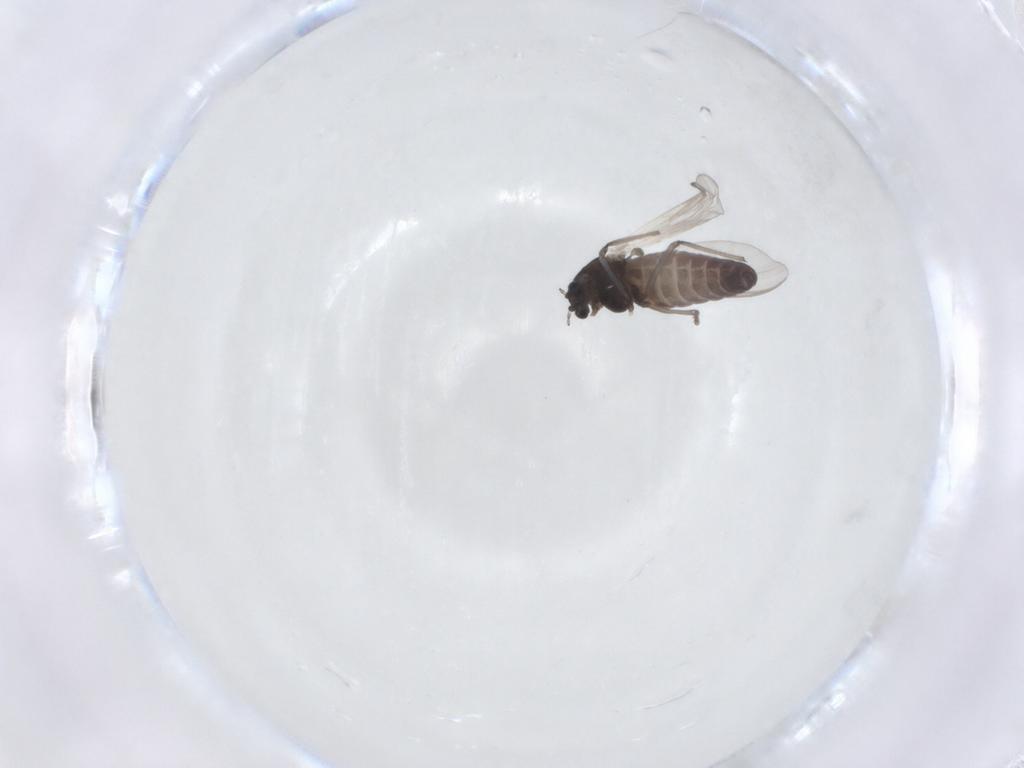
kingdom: Animalia
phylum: Arthropoda
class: Insecta
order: Diptera
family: Chironomidae
